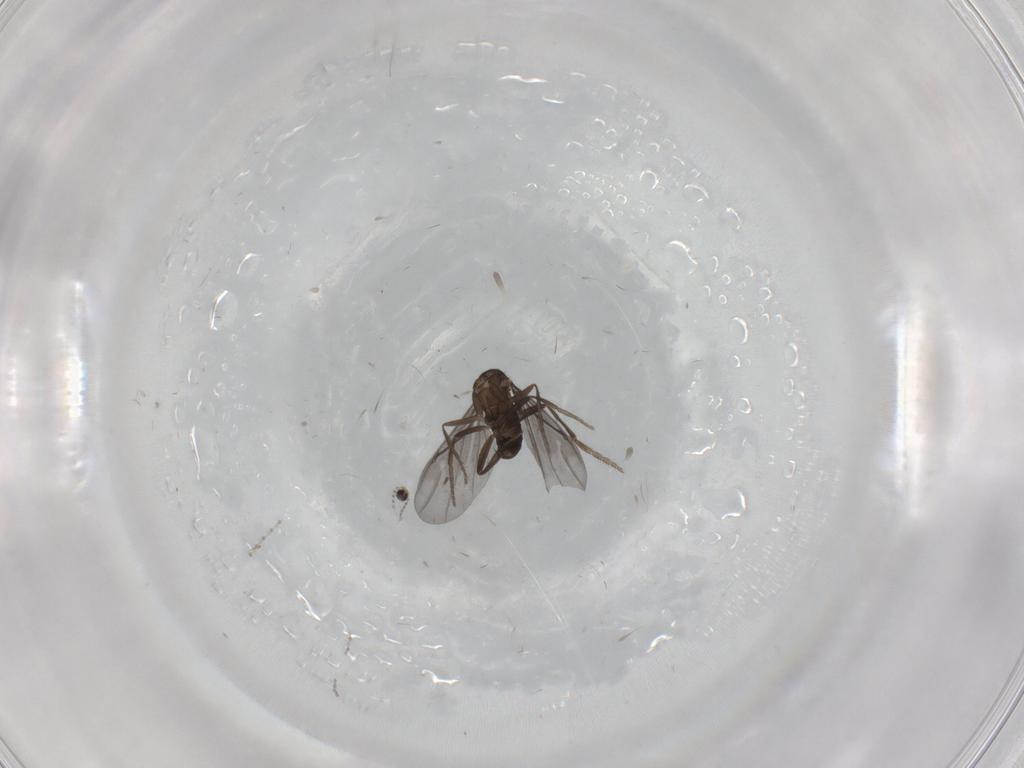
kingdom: Animalia
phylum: Arthropoda
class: Insecta
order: Diptera
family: Phoridae
